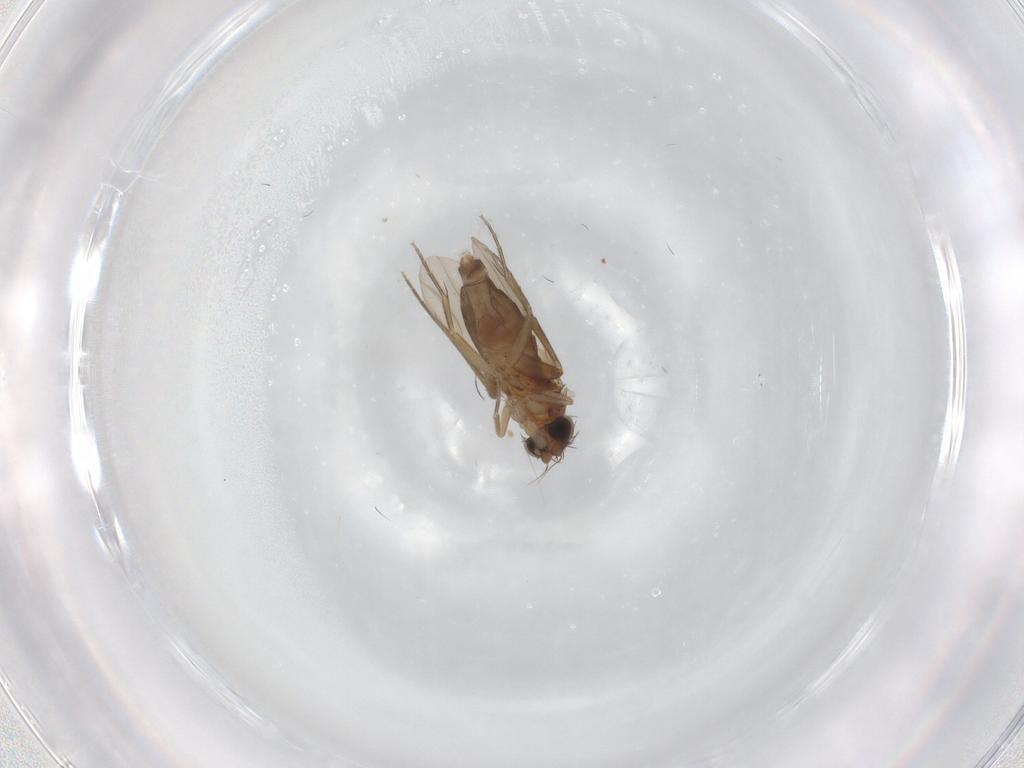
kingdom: Animalia
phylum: Arthropoda
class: Insecta
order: Diptera
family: Phoridae
